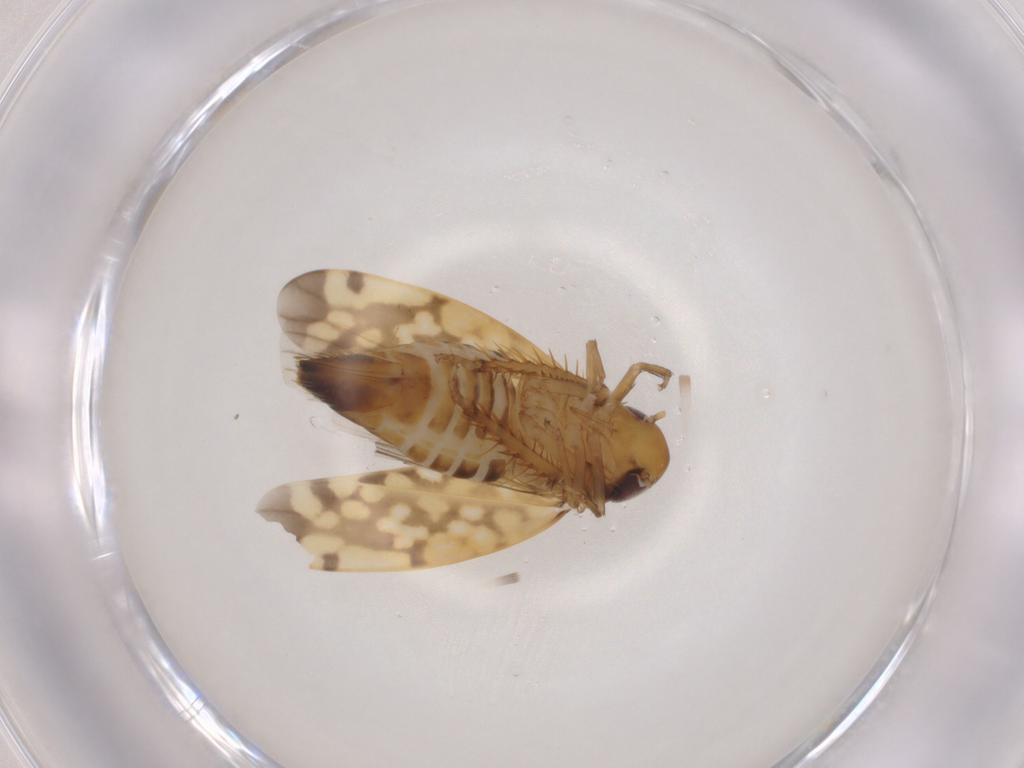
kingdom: Animalia
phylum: Arthropoda
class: Insecta
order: Hemiptera
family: Cicadellidae
